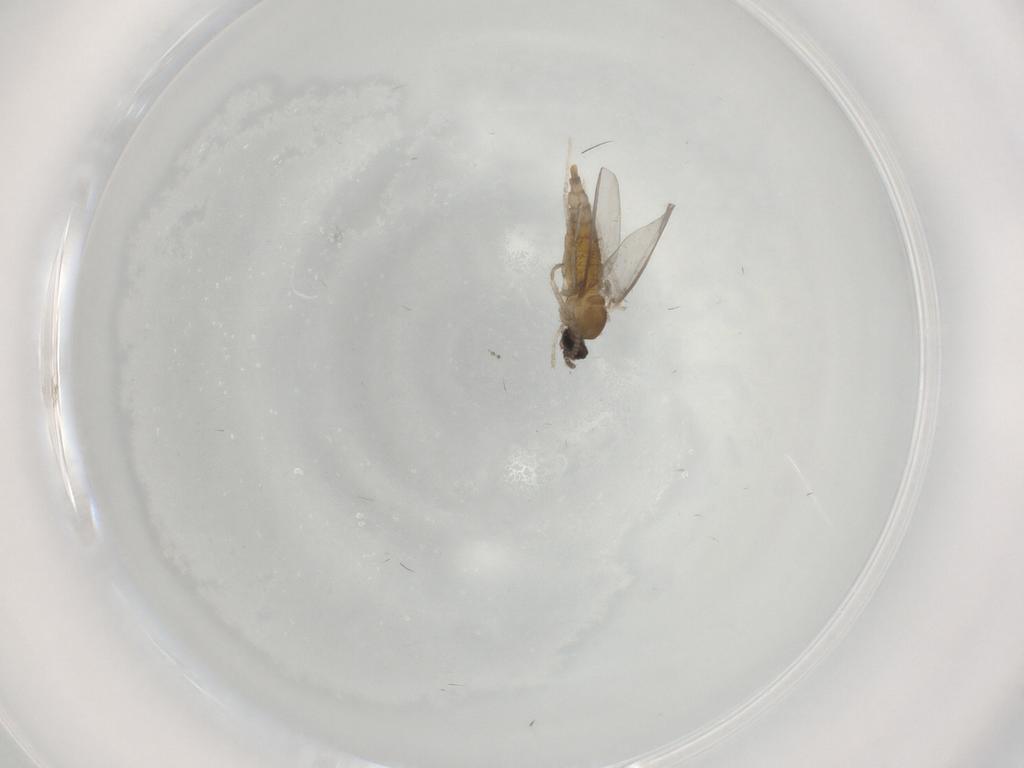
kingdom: Animalia
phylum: Arthropoda
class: Insecta
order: Diptera
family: Cecidomyiidae
